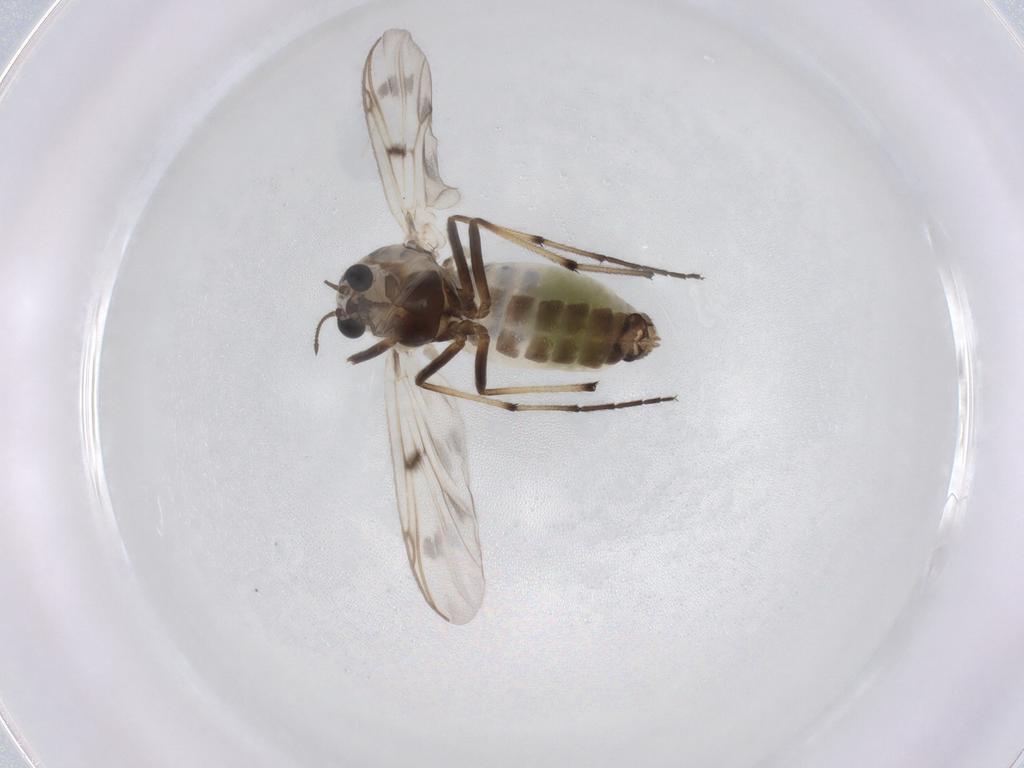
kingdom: Animalia
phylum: Arthropoda
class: Insecta
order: Diptera
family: Chironomidae
